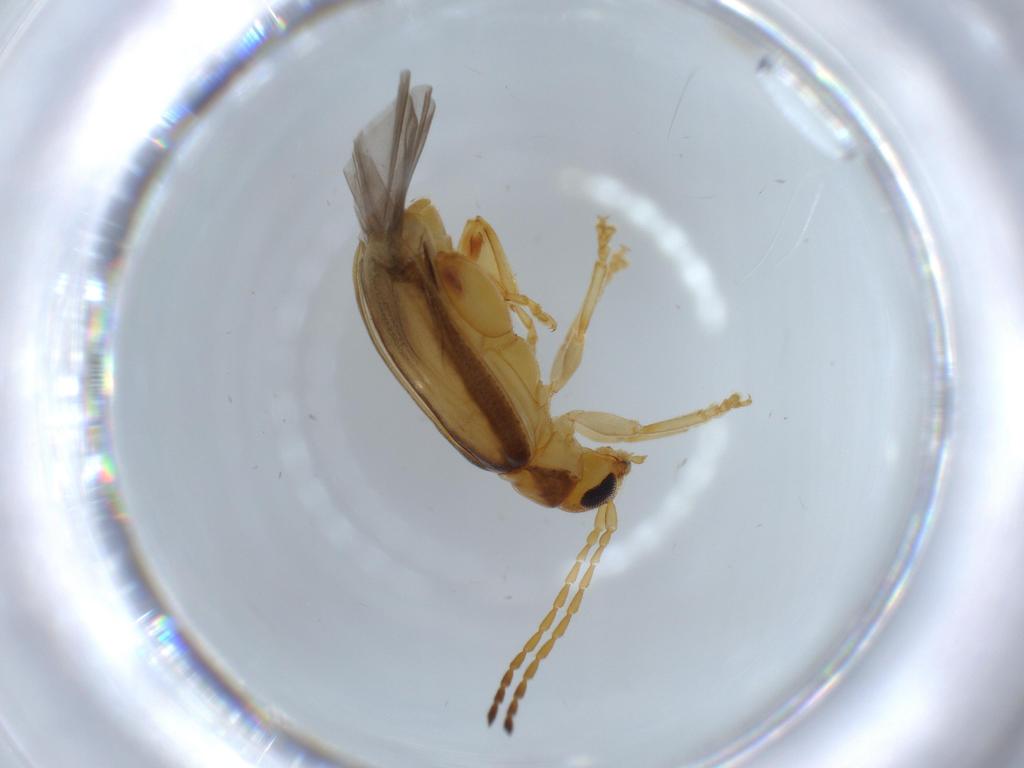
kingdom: Animalia
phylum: Arthropoda
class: Insecta
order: Coleoptera
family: Chrysomelidae
